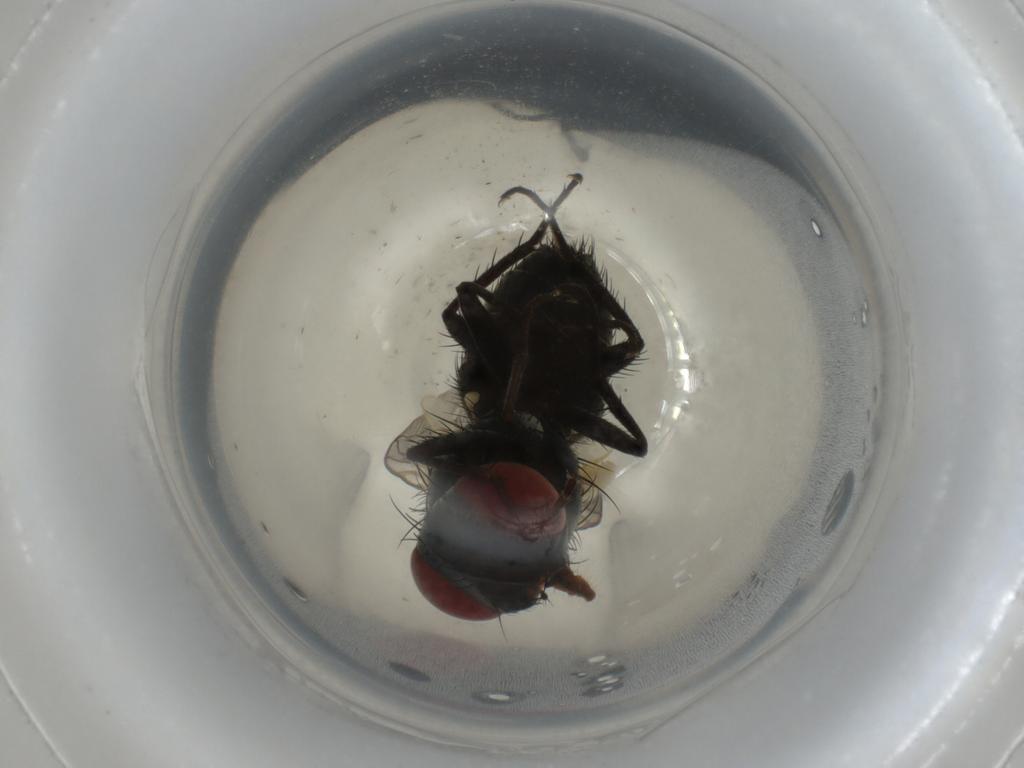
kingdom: Animalia
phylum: Arthropoda
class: Insecta
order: Diptera
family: Sarcophagidae
